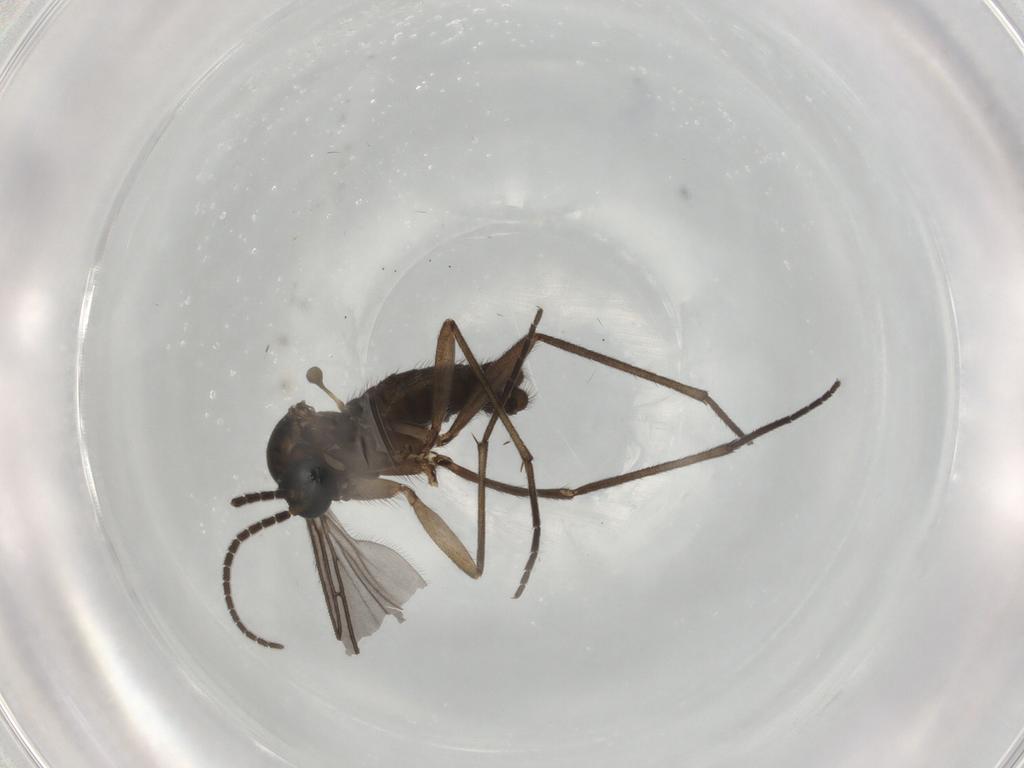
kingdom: Animalia
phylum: Arthropoda
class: Insecta
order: Diptera
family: Sciaridae
